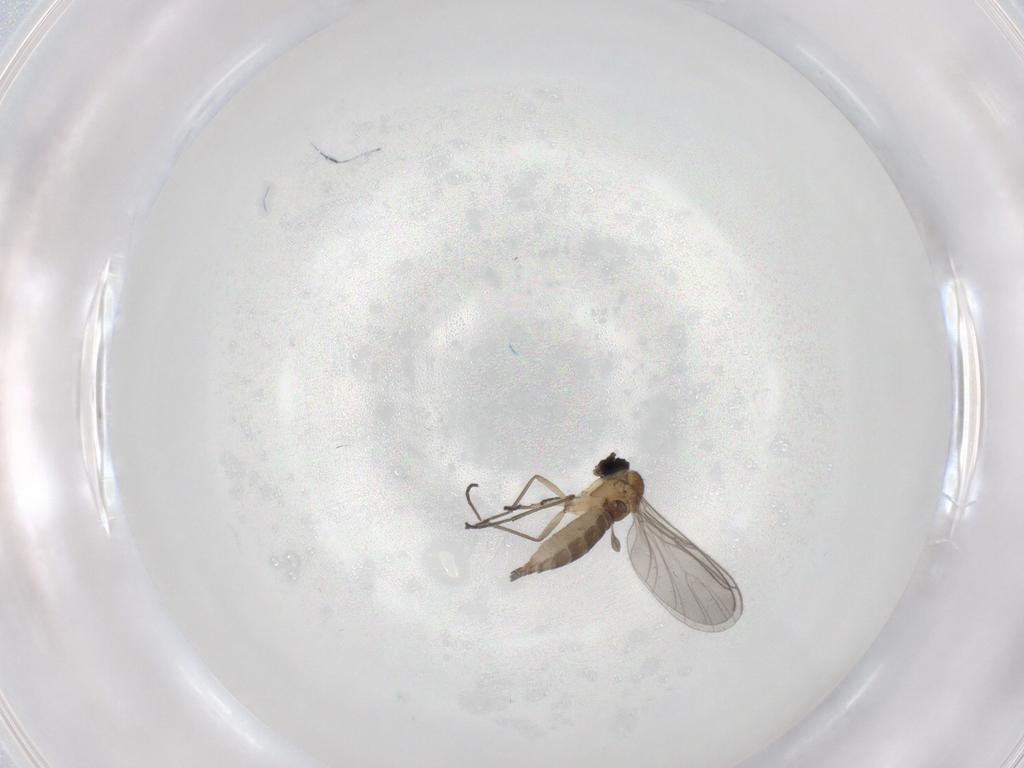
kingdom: Animalia
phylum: Arthropoda
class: Insecta
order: Diptera
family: Sciaridae
